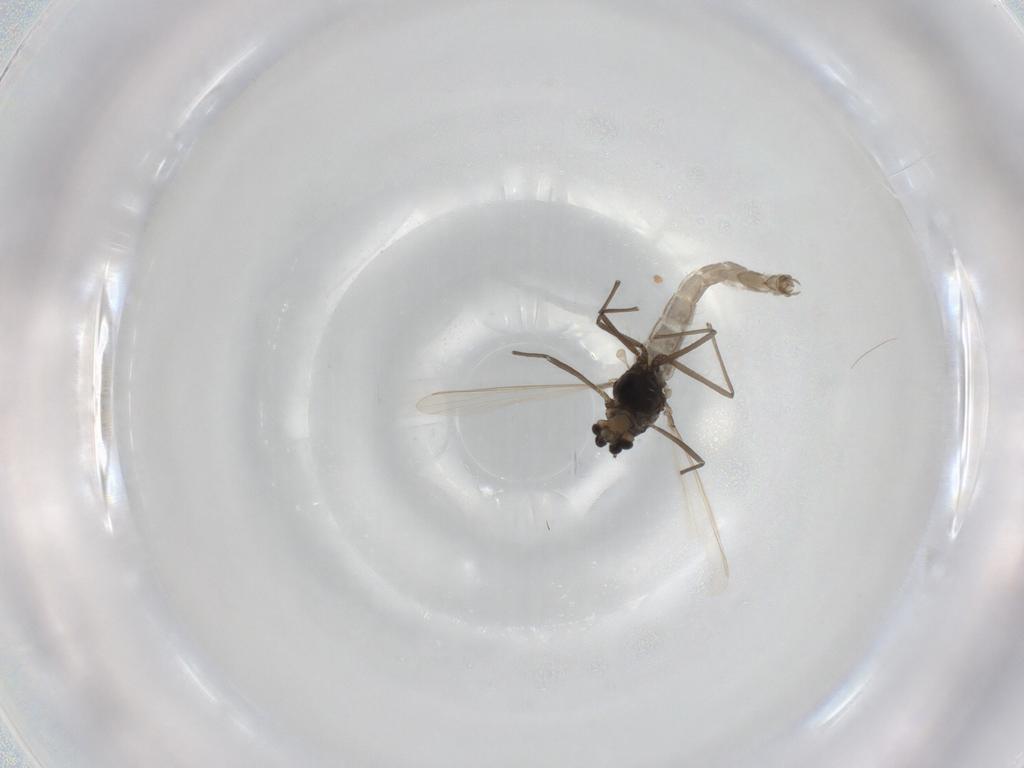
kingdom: Animalia
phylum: Arthropoda
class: Insecta
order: Diptera
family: Chironomidae
